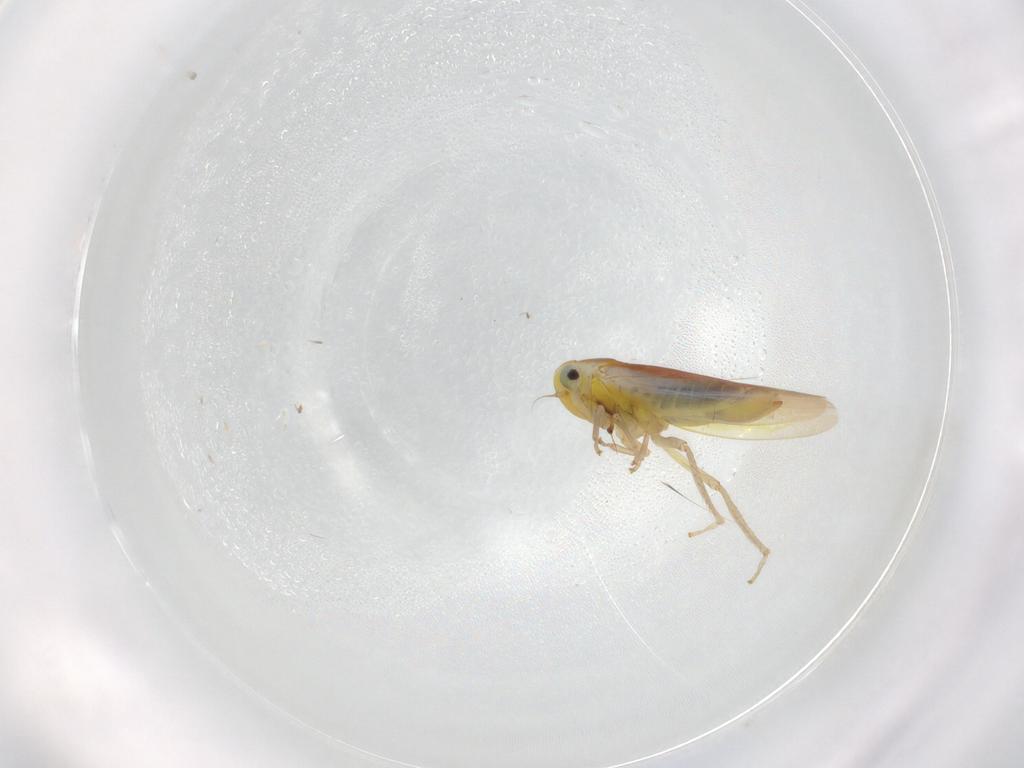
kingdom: Animalia
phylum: Arthropoda
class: Insecta
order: Hemiptera
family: Cicadellidae
